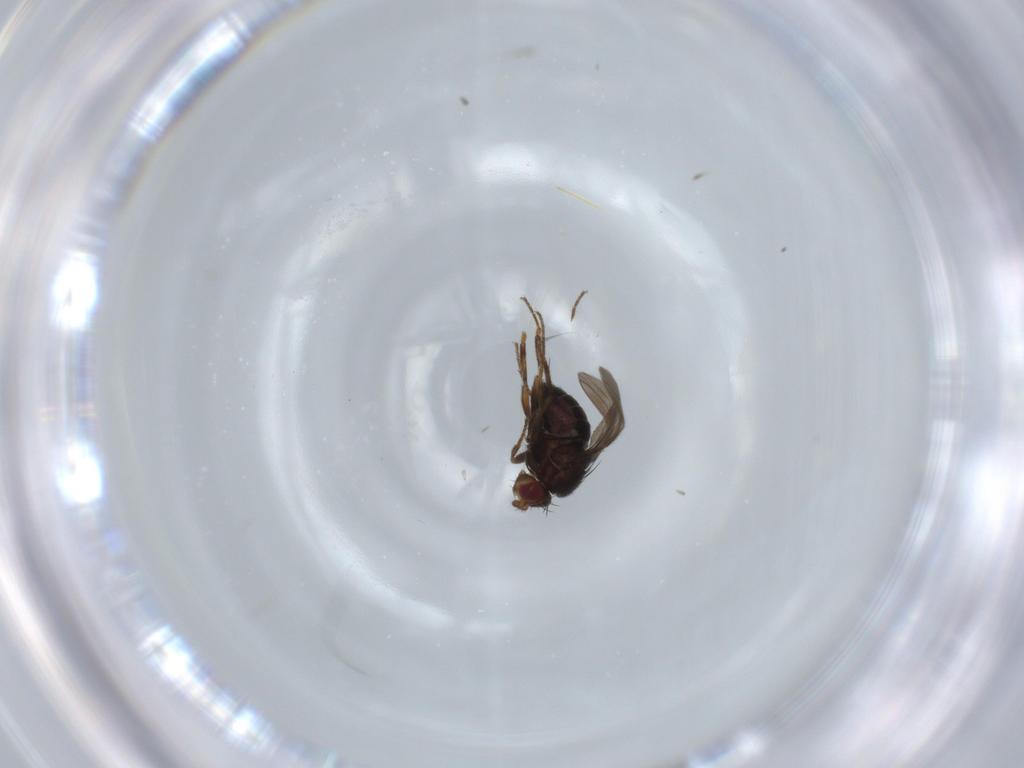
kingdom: Animalia
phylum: Arthropoda
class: Insecta
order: Diptera
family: Sphaeroceridae
